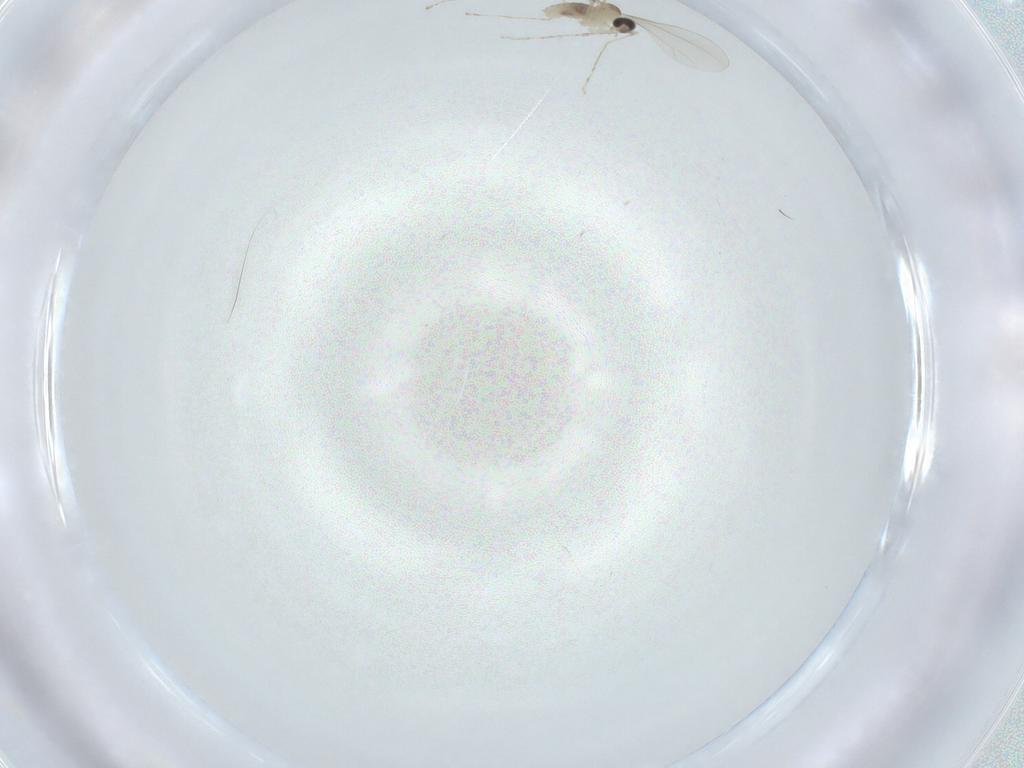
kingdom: Animalia
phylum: Arthropoda
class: Insecta
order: Diptera
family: Cecidomyiidae
